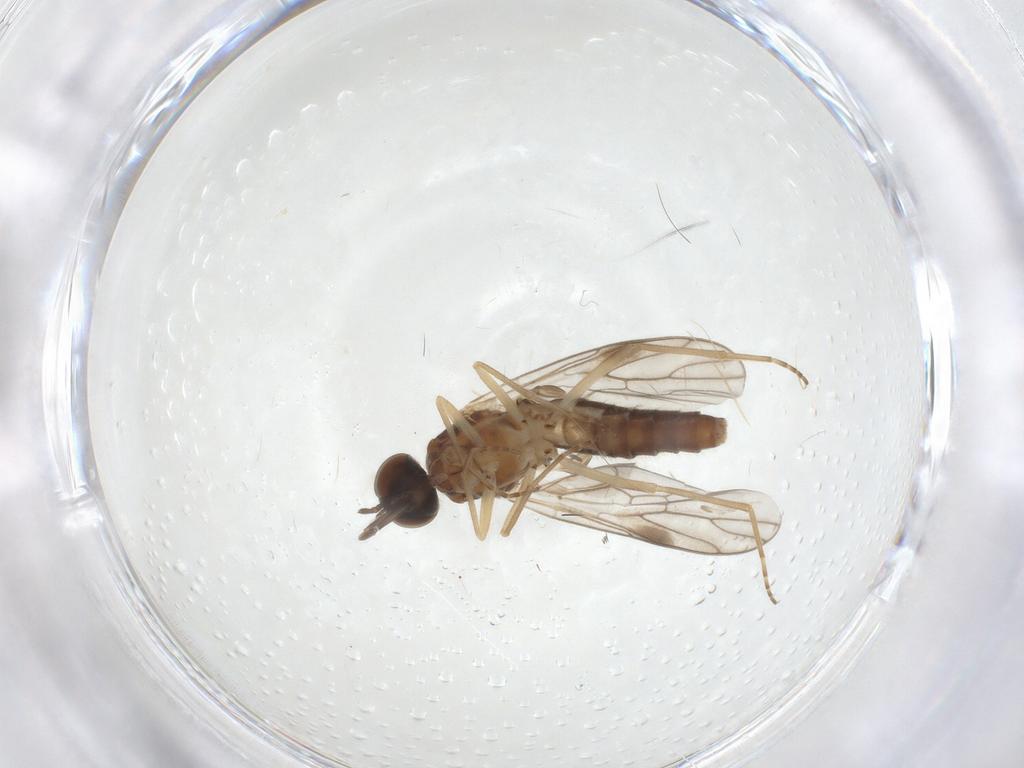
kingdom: Animalia
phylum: Arthropoda
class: Insecta
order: Diptera
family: Scenopinidae
